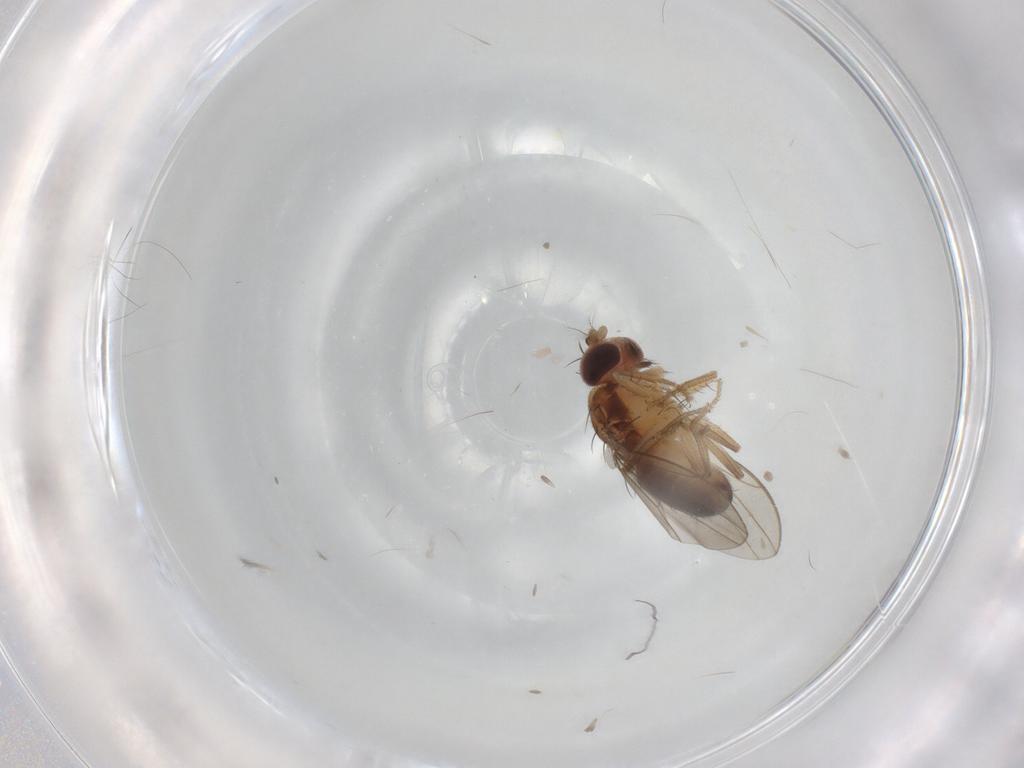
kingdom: Animalia
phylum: Arthropoda
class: Insecta
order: Diptera
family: Drosophilidae
